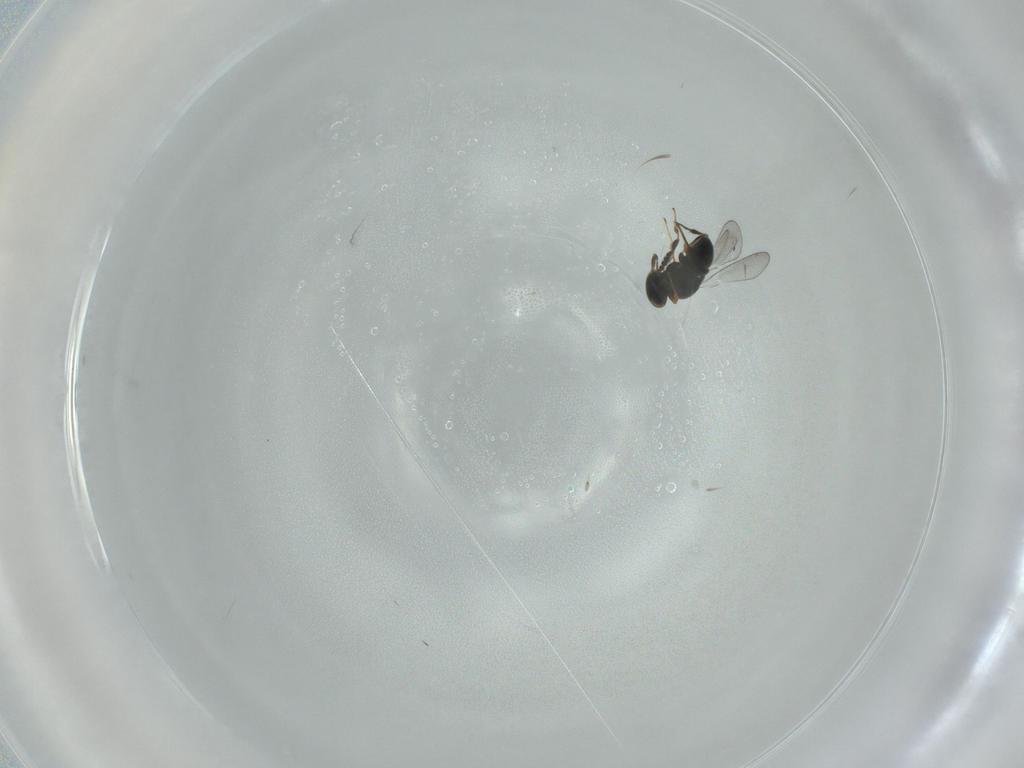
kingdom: Animalia
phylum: Arthropoda
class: Insecta
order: Hymenoptera
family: Platygastridae
